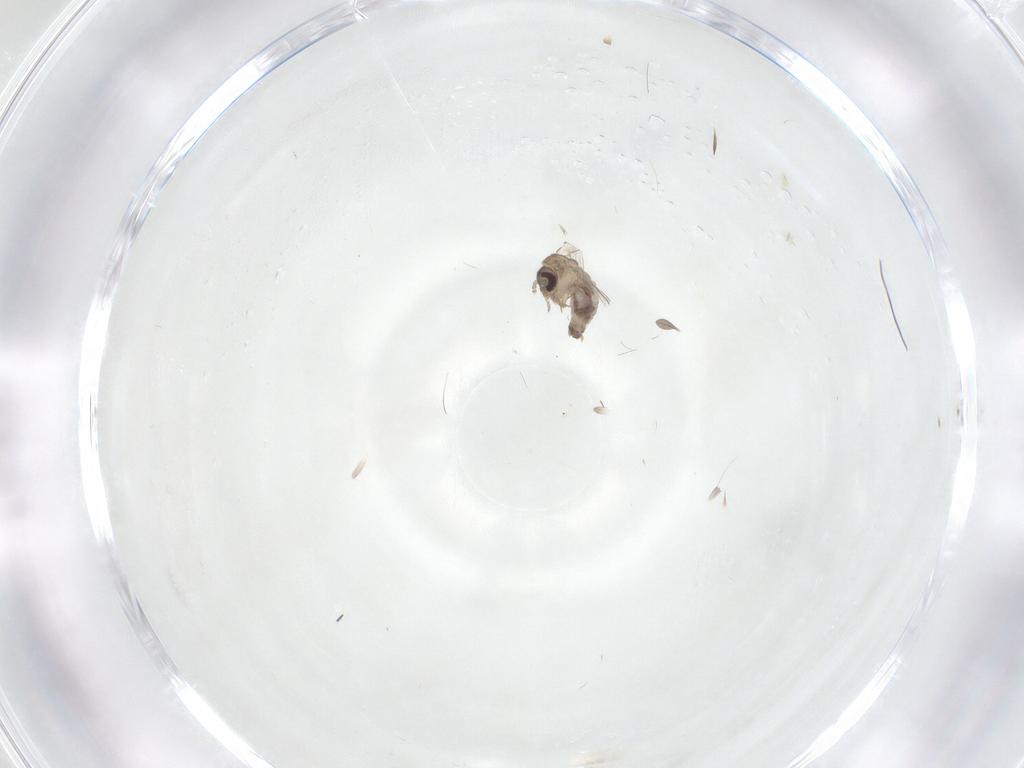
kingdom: Animalia
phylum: Arthropoda
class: Insecta
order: Diptera
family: Psychodidae
